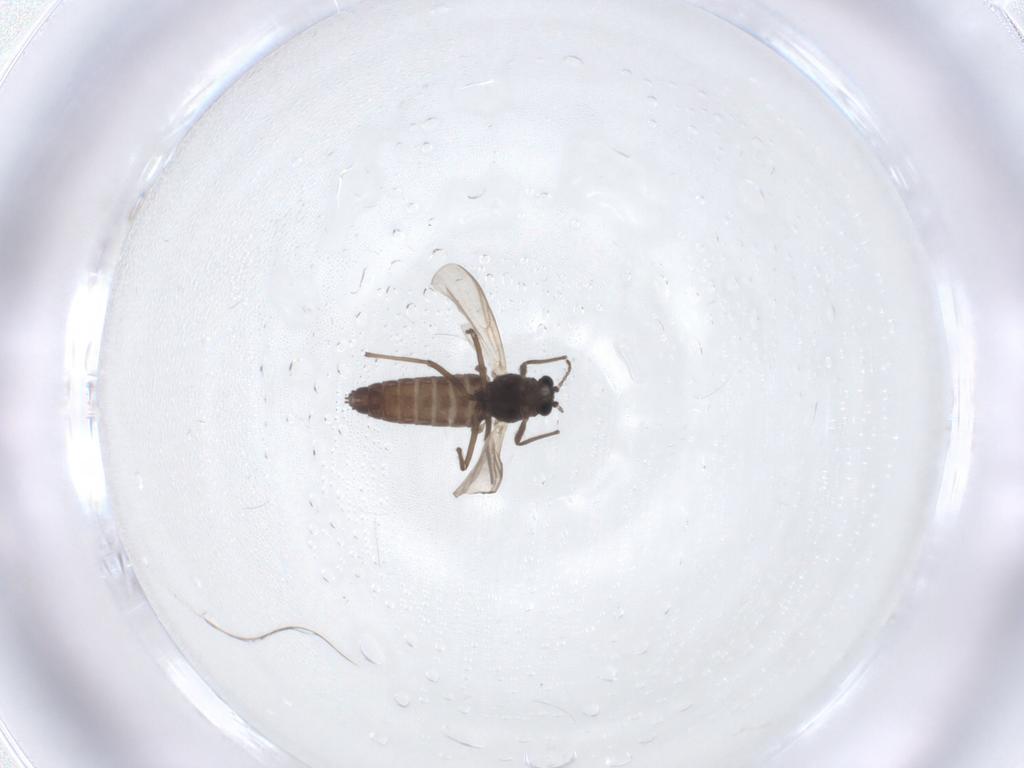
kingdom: Animalia
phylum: Arthropoda
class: Insecta
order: Diptera
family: Chironomidae
